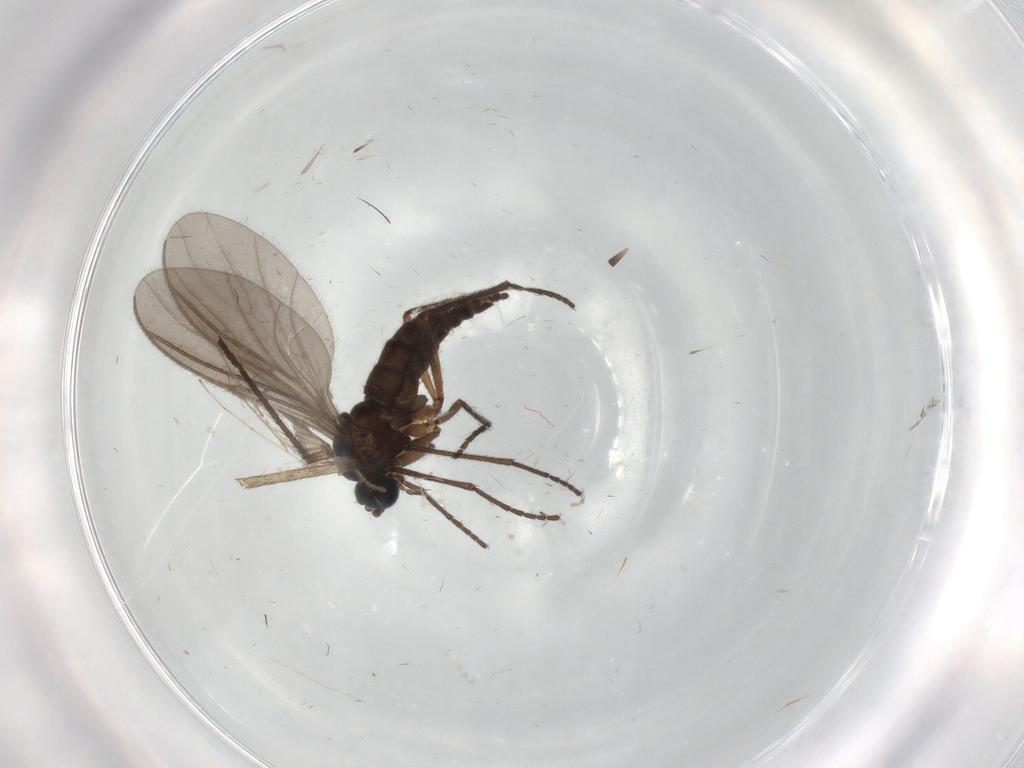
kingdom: Animalia
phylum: Arthropoda
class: Insecta
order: Diptera
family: Sciaridae
